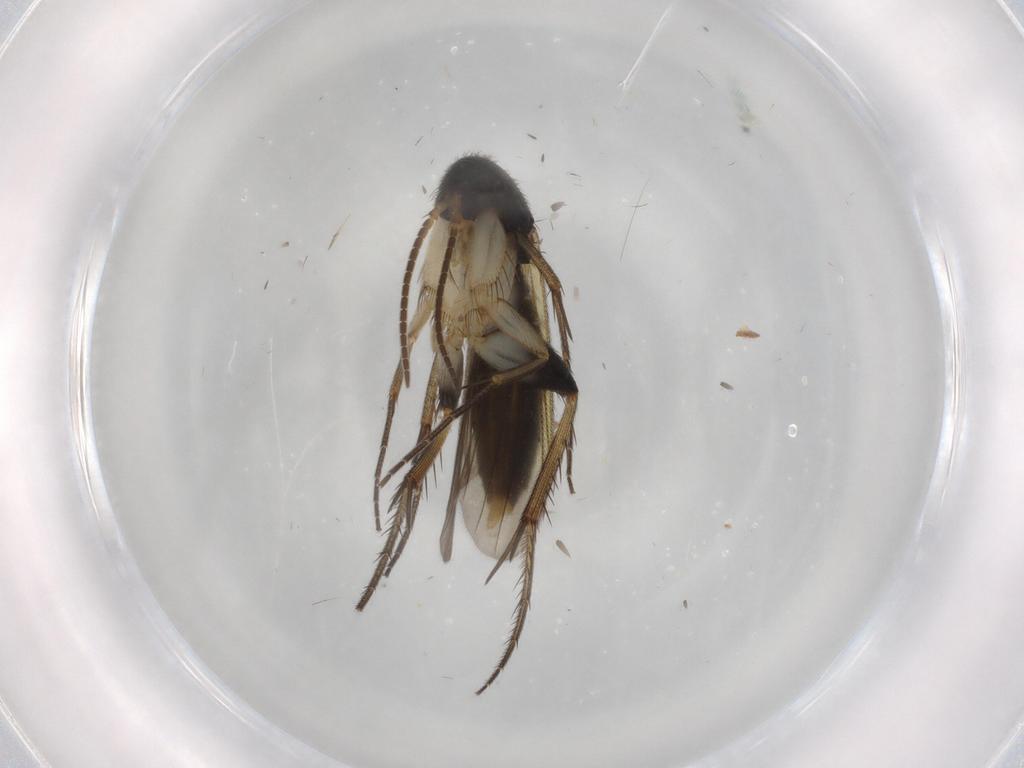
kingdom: Animalia
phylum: Arthropoda
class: Insecta
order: Diptera
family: Mycetophilidae
